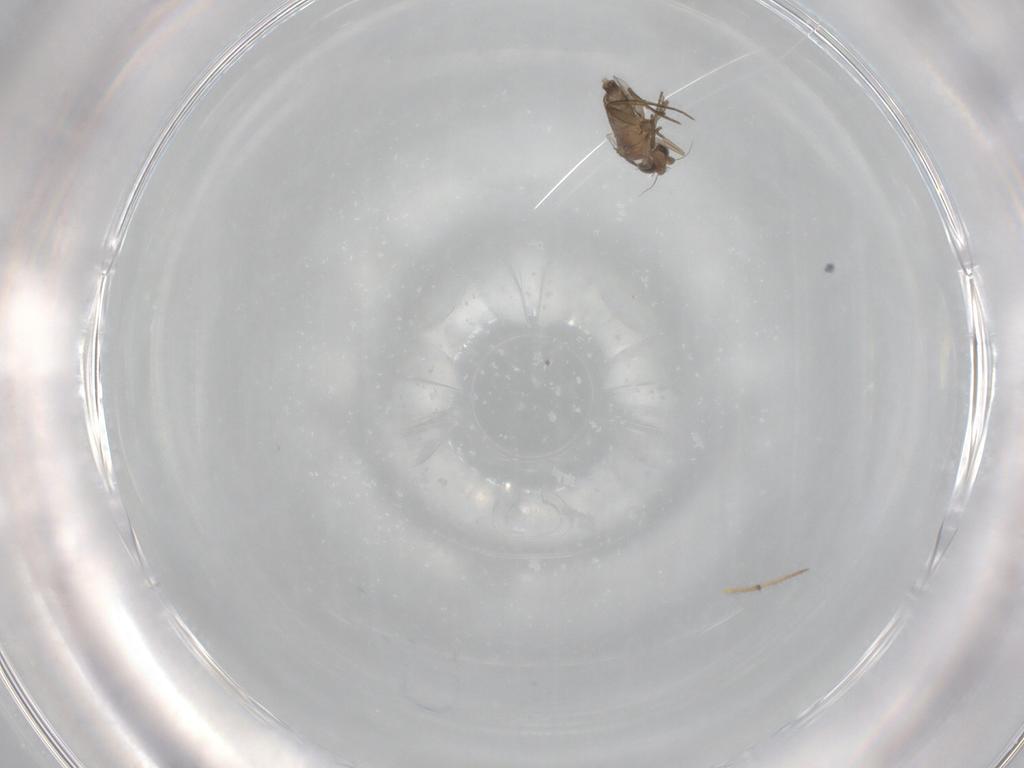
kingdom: Animalia
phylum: Arthropoda
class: Insecta
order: Diptera
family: Phoridae
